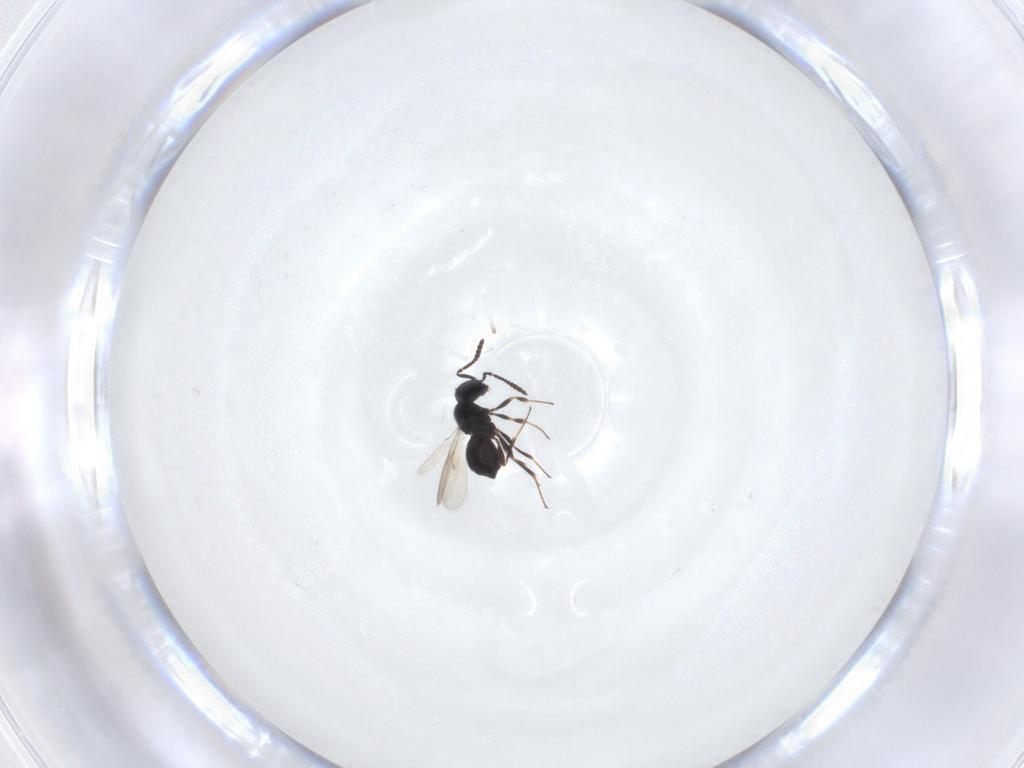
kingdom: Animalia
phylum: Arthropoda
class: Insecta
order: Hymenoptera
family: Scelionidae
